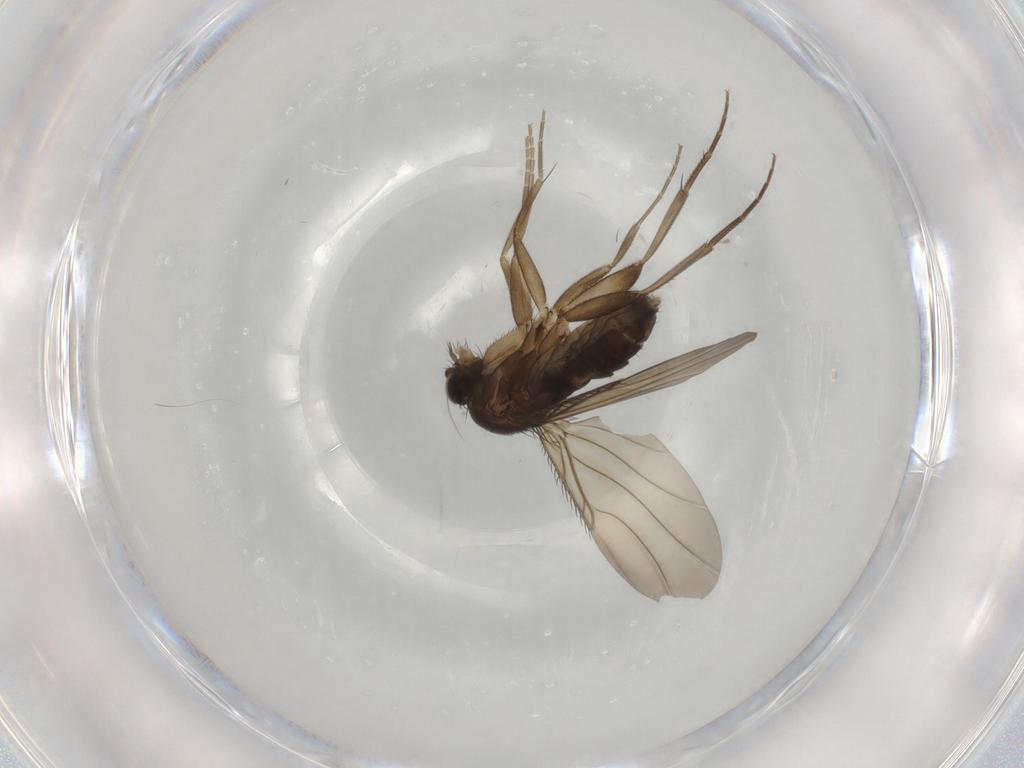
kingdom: Animalia
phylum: Arthropoda
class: Insecta
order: Diptera
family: Phoridae
